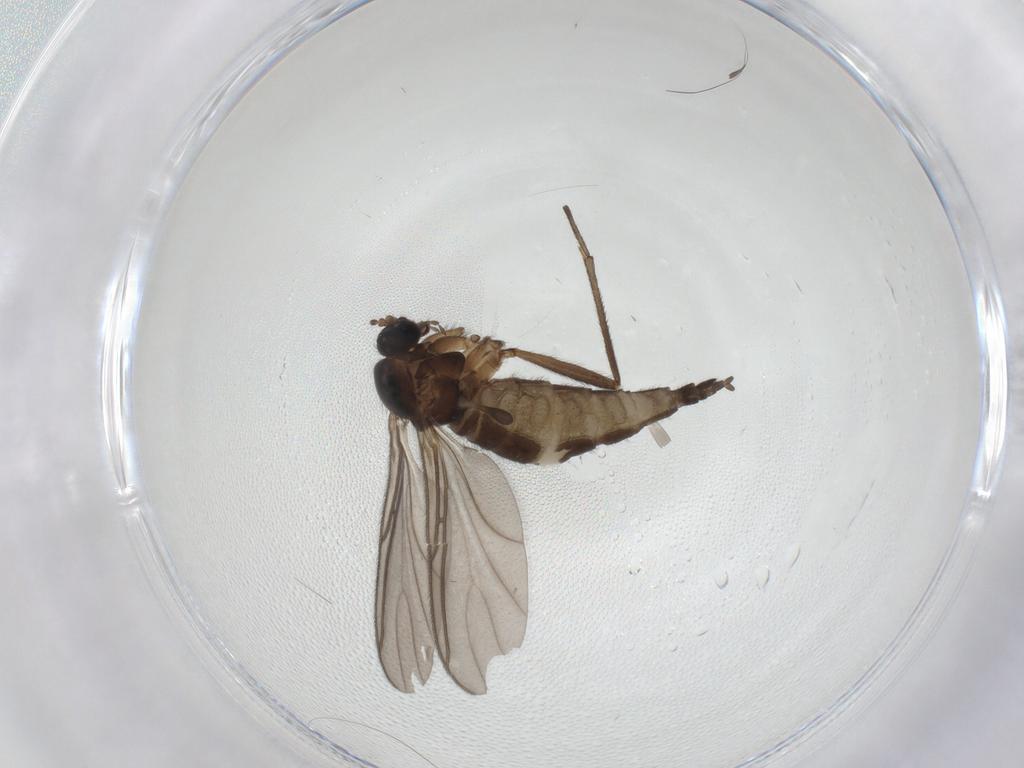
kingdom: Animalia
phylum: Arthropoda
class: Insecta
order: Diptera
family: Sciaridae
